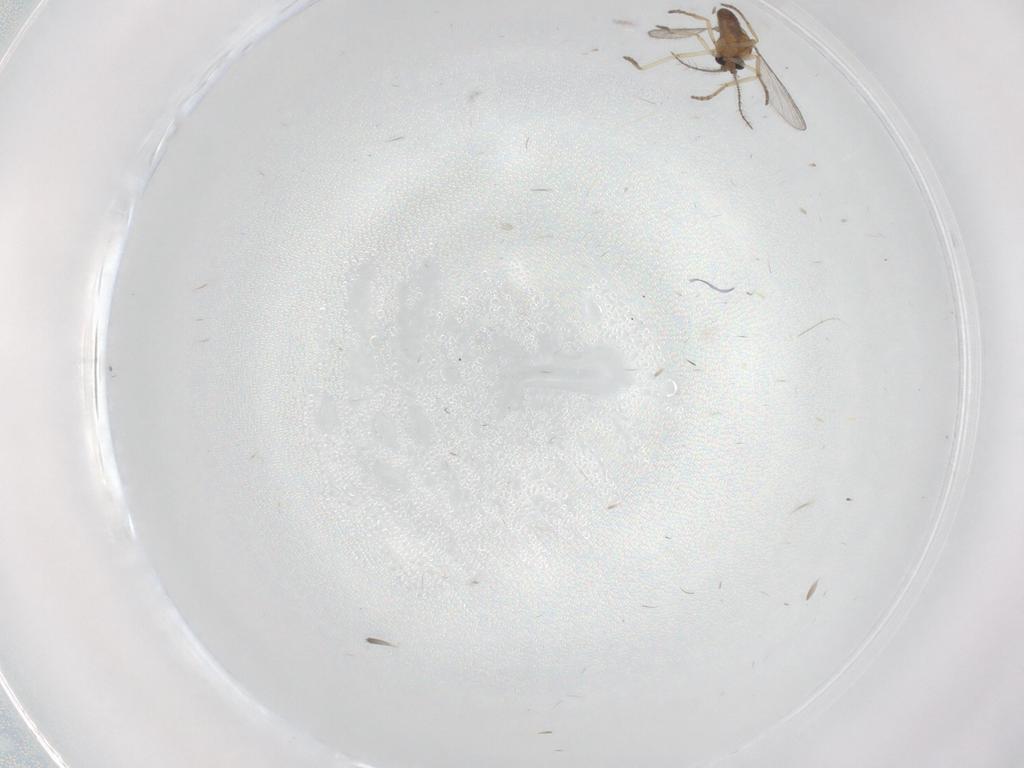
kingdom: Animalia
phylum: Arthropoda
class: Insecta
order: Diptera
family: Ceratopogonidae
